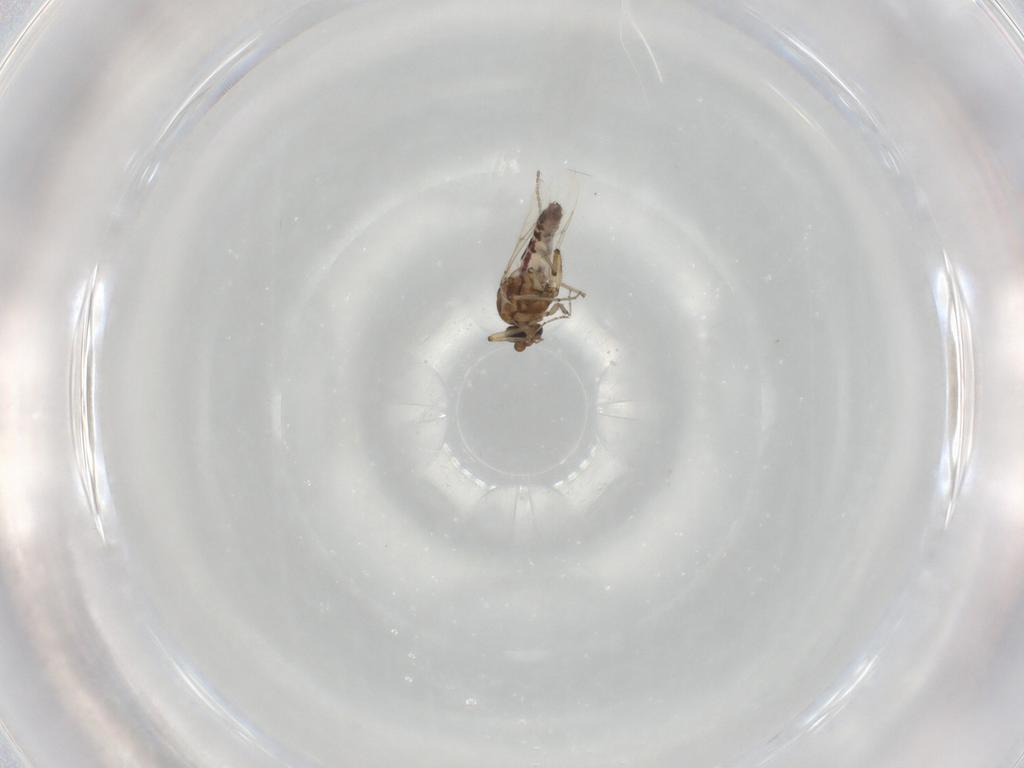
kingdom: Animalia
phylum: Arthropoda
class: Insecta
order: Diptera
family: Ceratopogonidae
